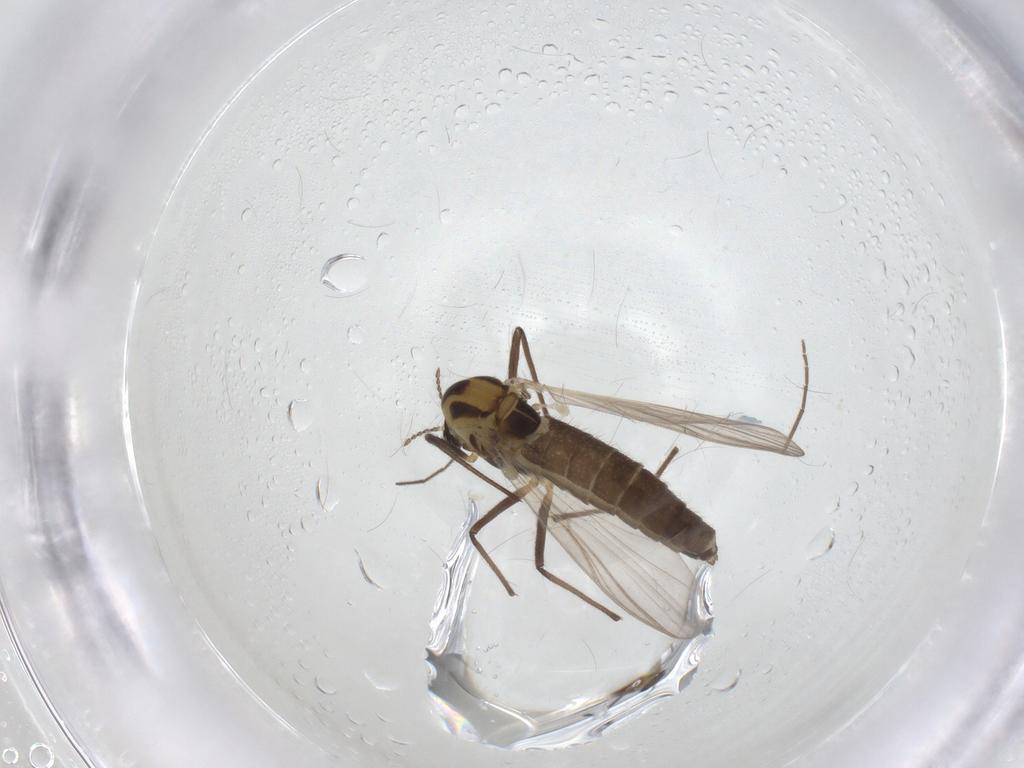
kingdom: Animalia
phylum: Arthropoda
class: Insecta
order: Diptera
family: Chironomidae
